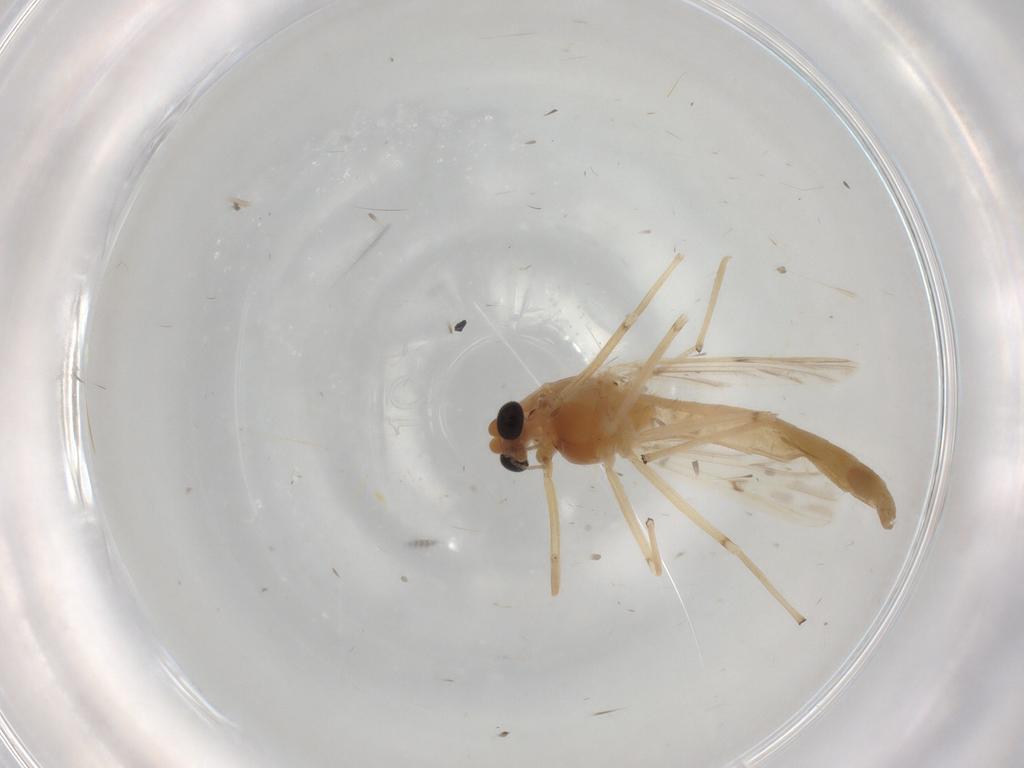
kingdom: Animalia
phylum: Arthropoda
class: Insecta
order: Diptera
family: Chironomidae
